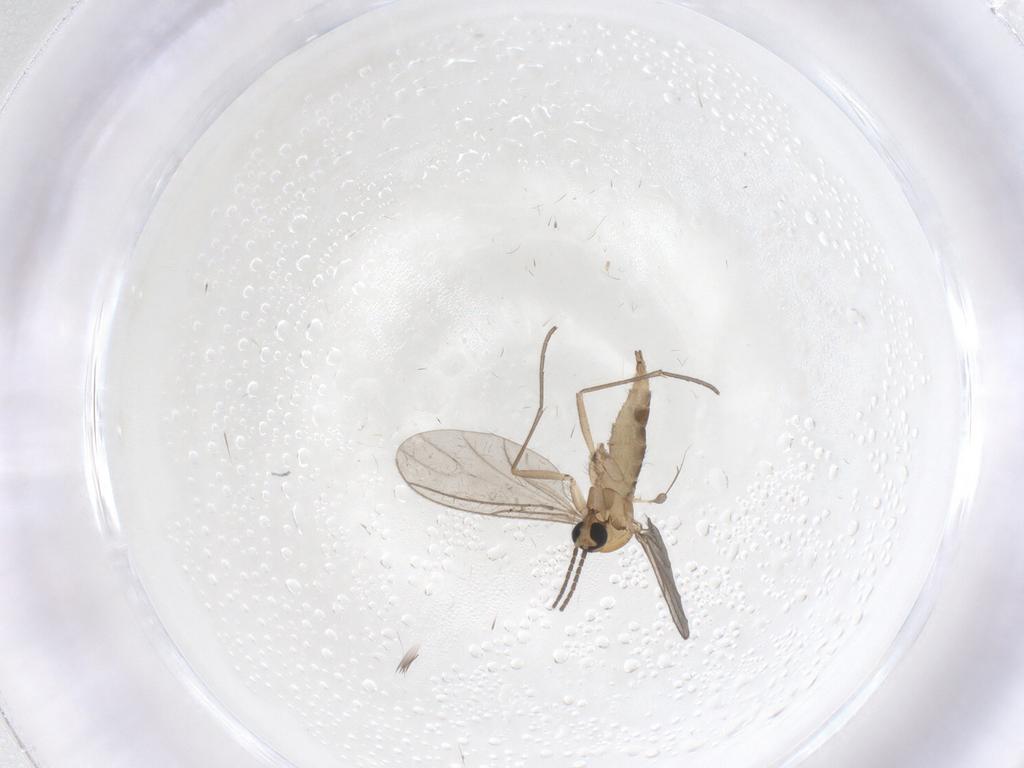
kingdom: Animalia
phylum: Arthropoda
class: Insecta
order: Diptera
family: Sciaridae
